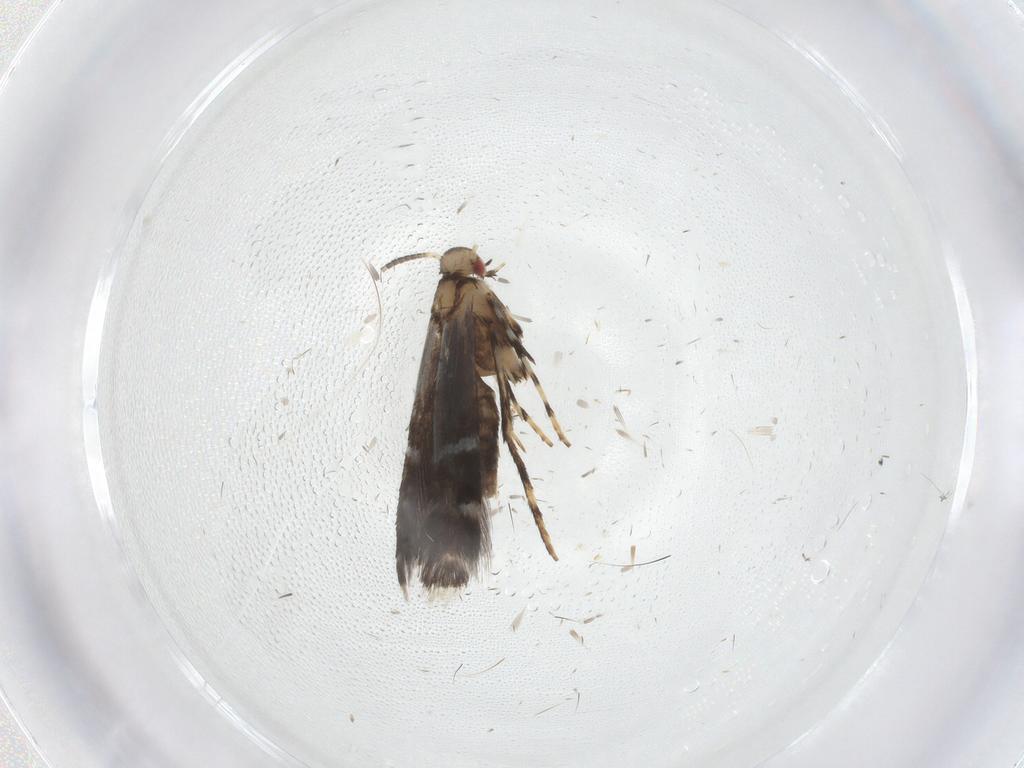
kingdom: Animalia
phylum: Arthropoda
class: Insecta
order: Lepidoptera
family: Gracillariidae
